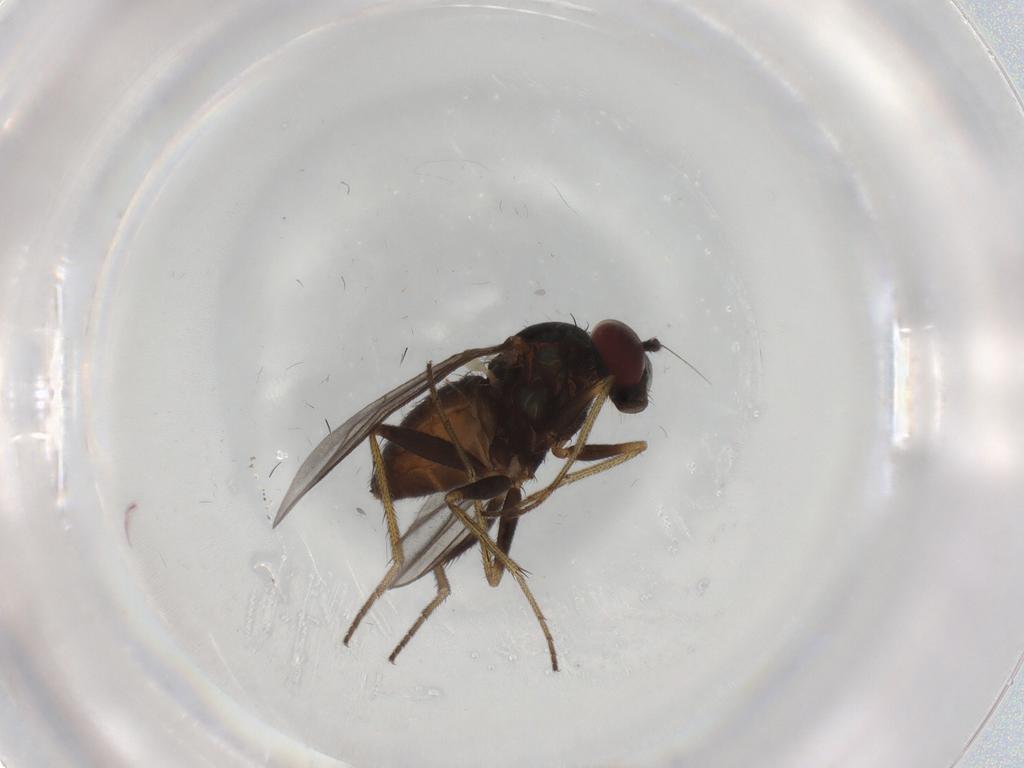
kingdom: Animalia
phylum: Arthropoda
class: Insecta
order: Diptera
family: Dolichopodidae
